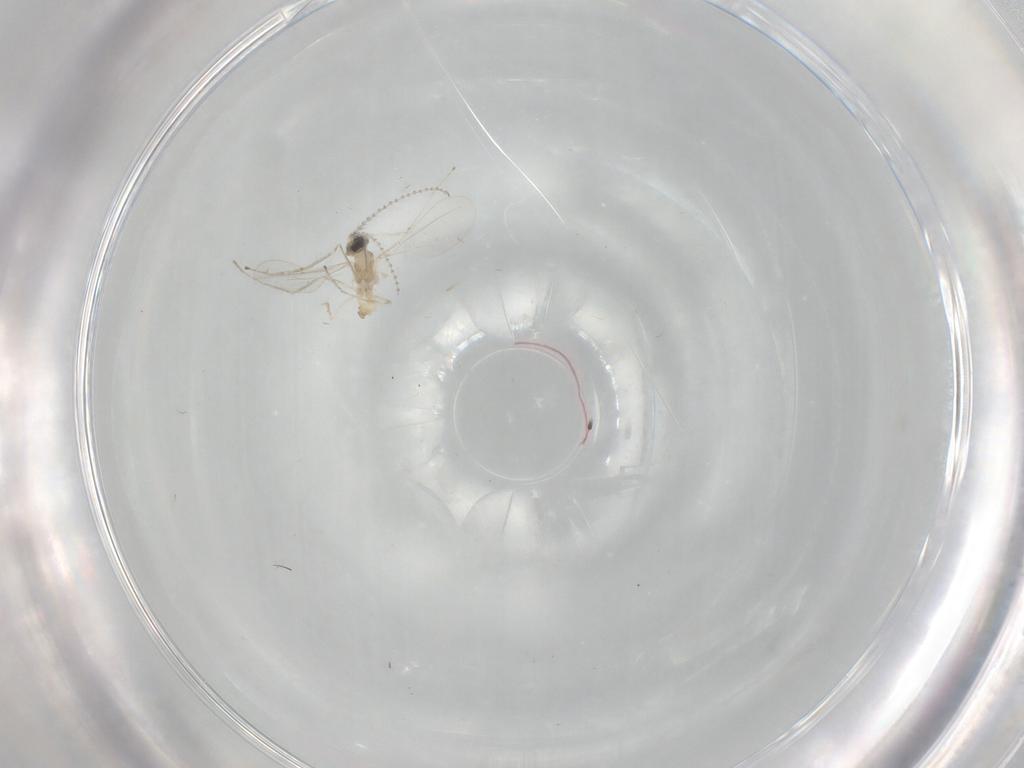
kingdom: Animalia
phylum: Arthropoda
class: Insecta
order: Diptera
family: Cecidomyiidae
